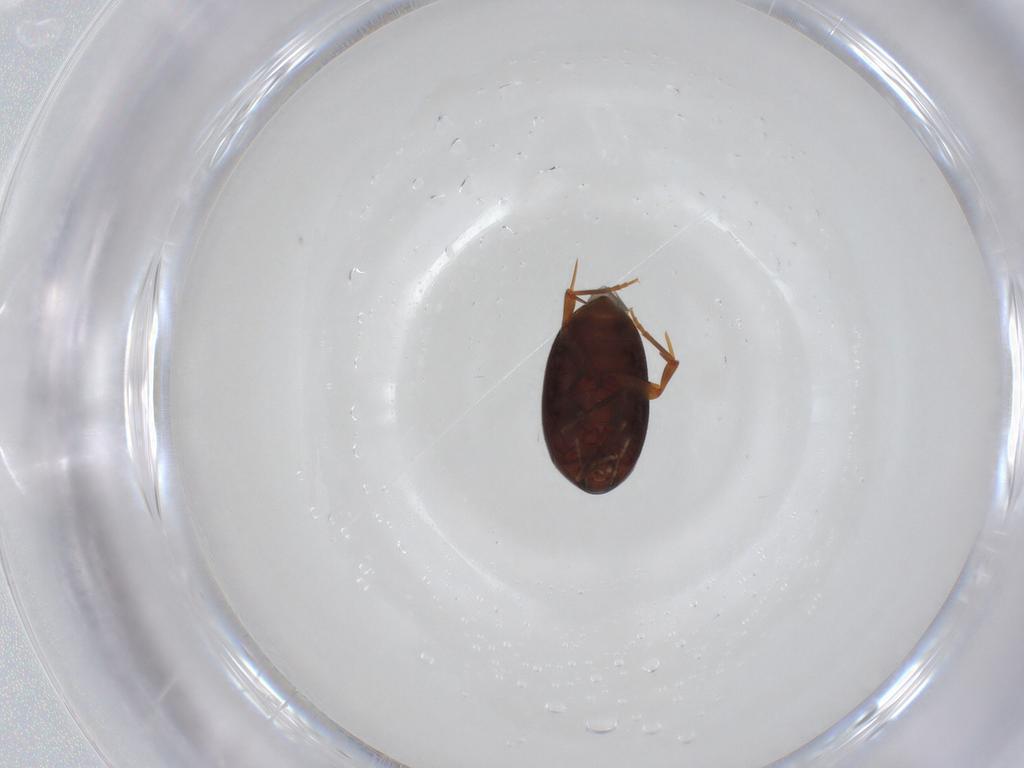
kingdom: Animalia
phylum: Arthropoda
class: Insecta
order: Coleoptera
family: Melandryidae
